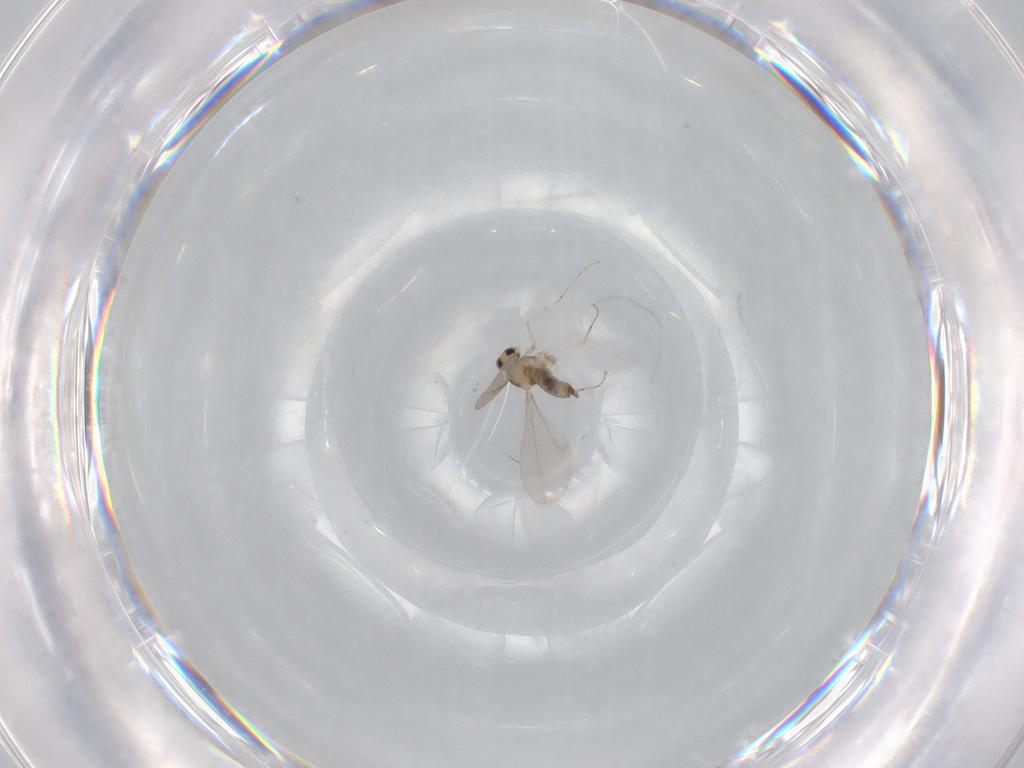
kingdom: Animalia
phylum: Arthropoda
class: Insecta
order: Diptera
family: Cecidomyiidae
